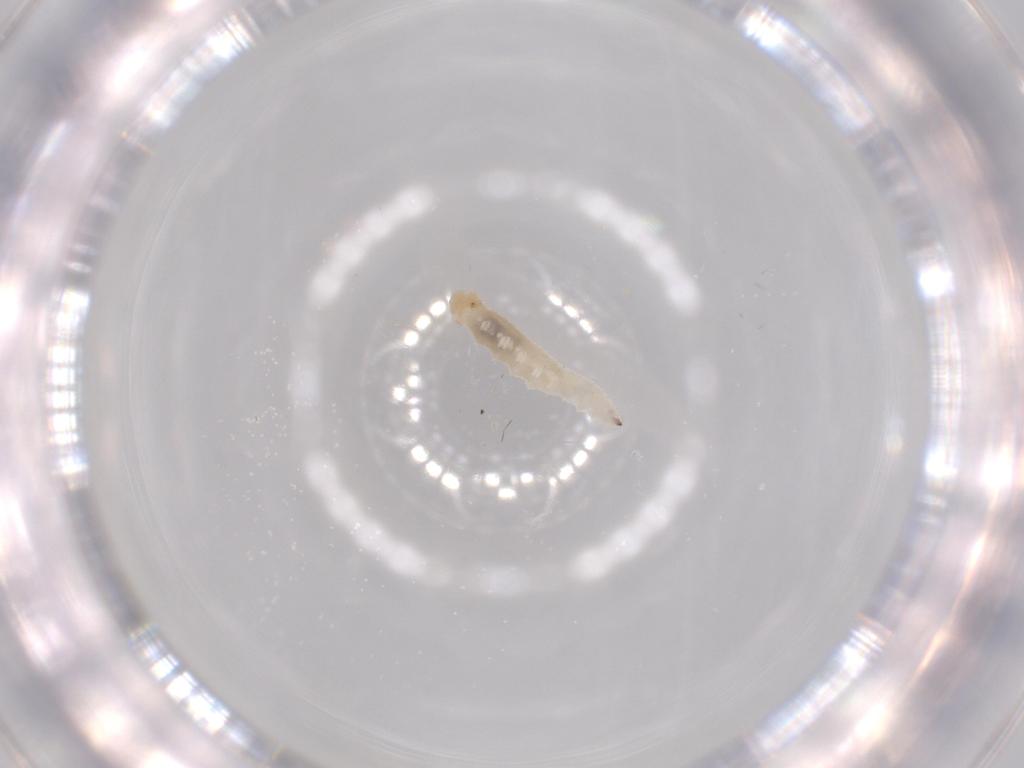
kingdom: Animalia
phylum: Arthropoda
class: Insecta
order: Diptera
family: Cecidomyiidae
